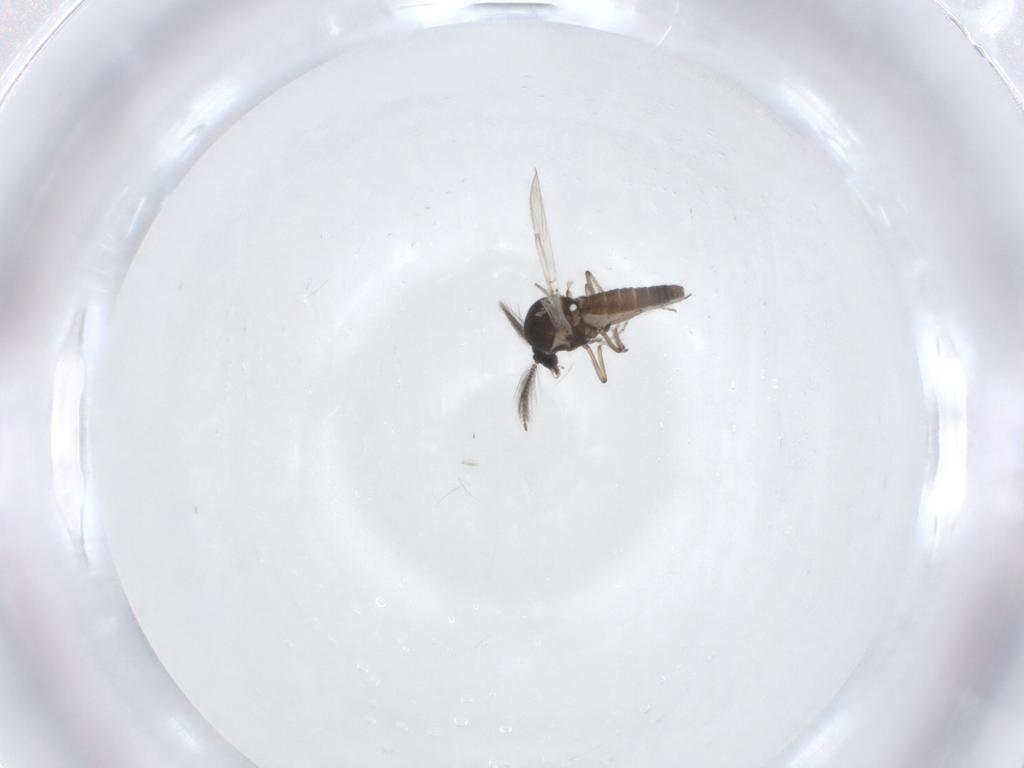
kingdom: Animalia
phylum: Arthropoda
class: Insecta
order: Diptera
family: Ceratopogonidae
